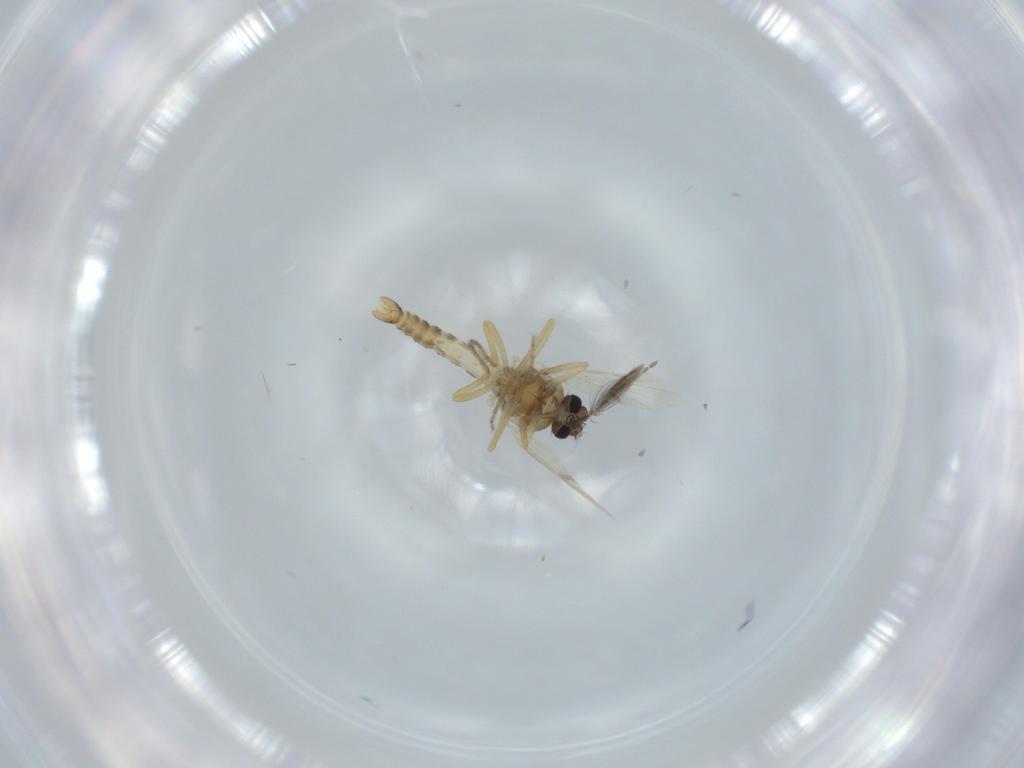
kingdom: Animalia
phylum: Arthropoda
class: Insecta
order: Diptera
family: Ceratopogonidae
